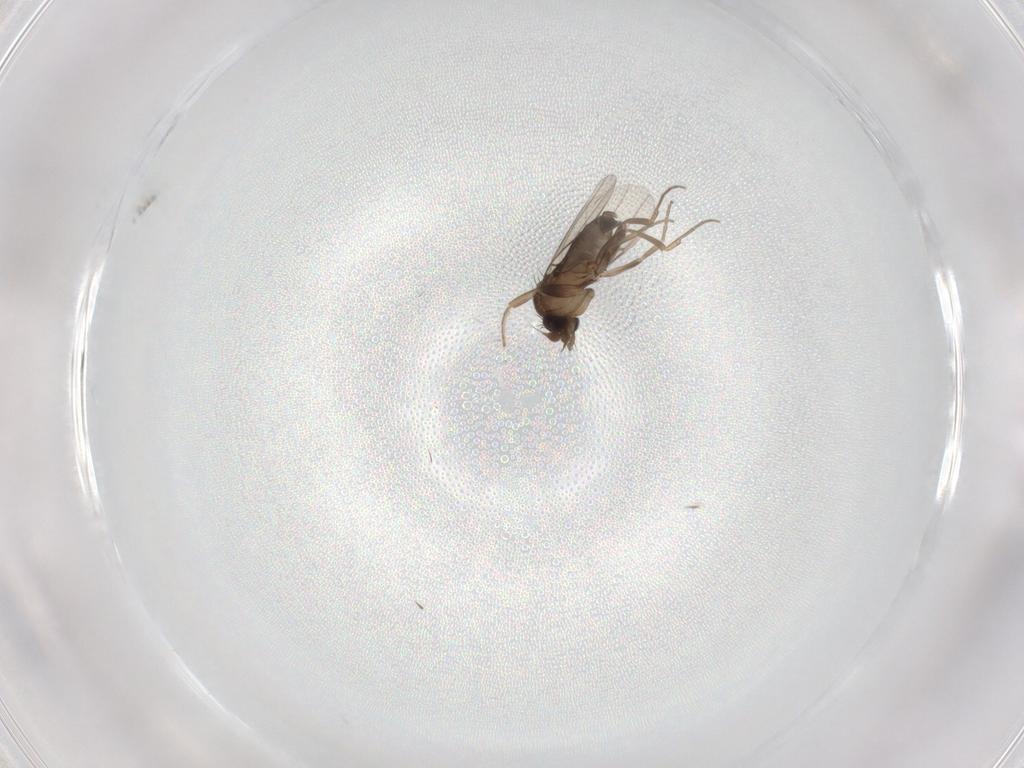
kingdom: Animalia
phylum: Arthropoda
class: Insecta
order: Diptera
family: Phoridae
